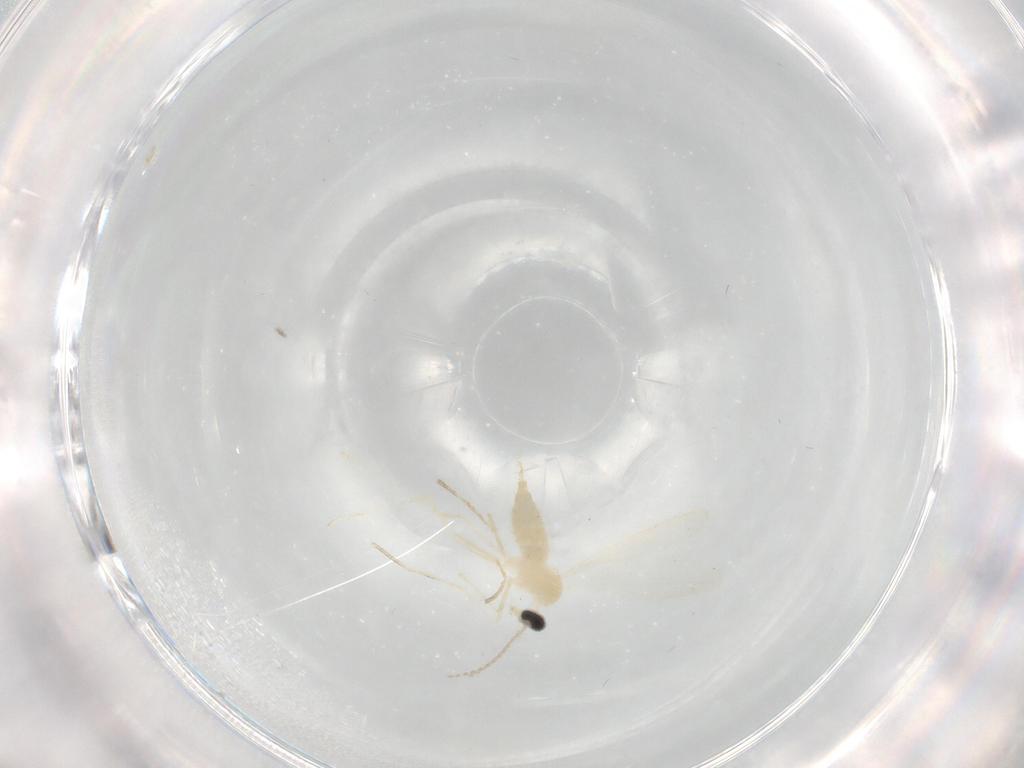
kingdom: Animalia
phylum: Arthropoda
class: Insecta
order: Diptera
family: Cecidomyiidae
